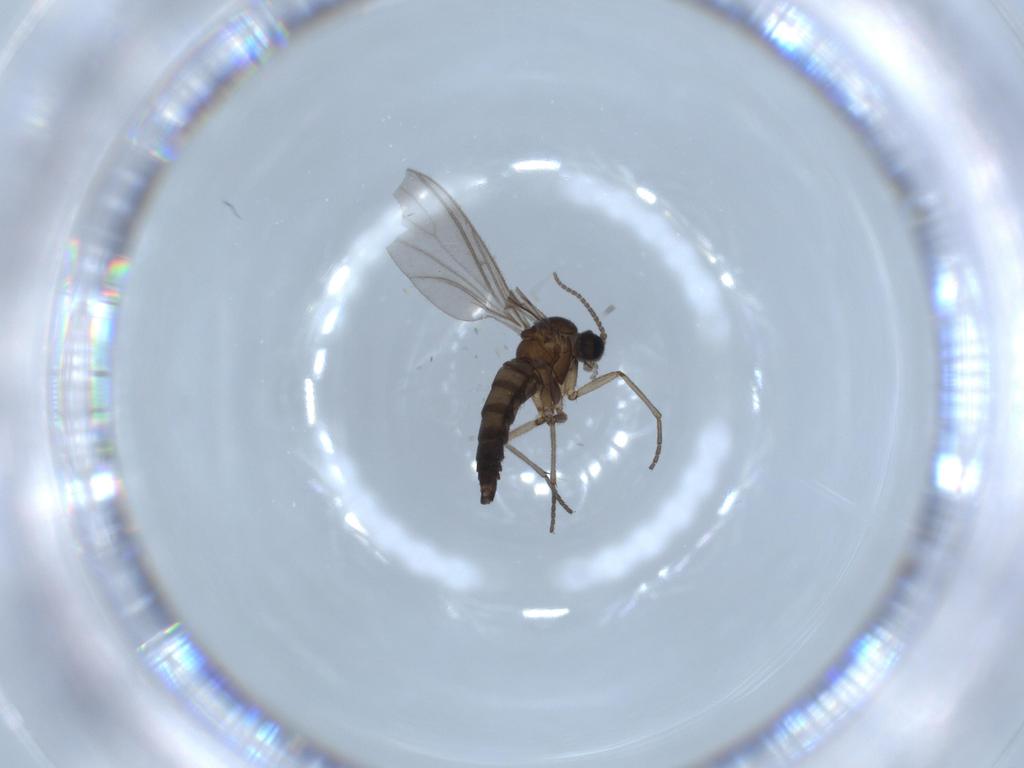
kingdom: Animalia
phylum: Arthropoda
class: Insecta
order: Diptera
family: Sciaridae
